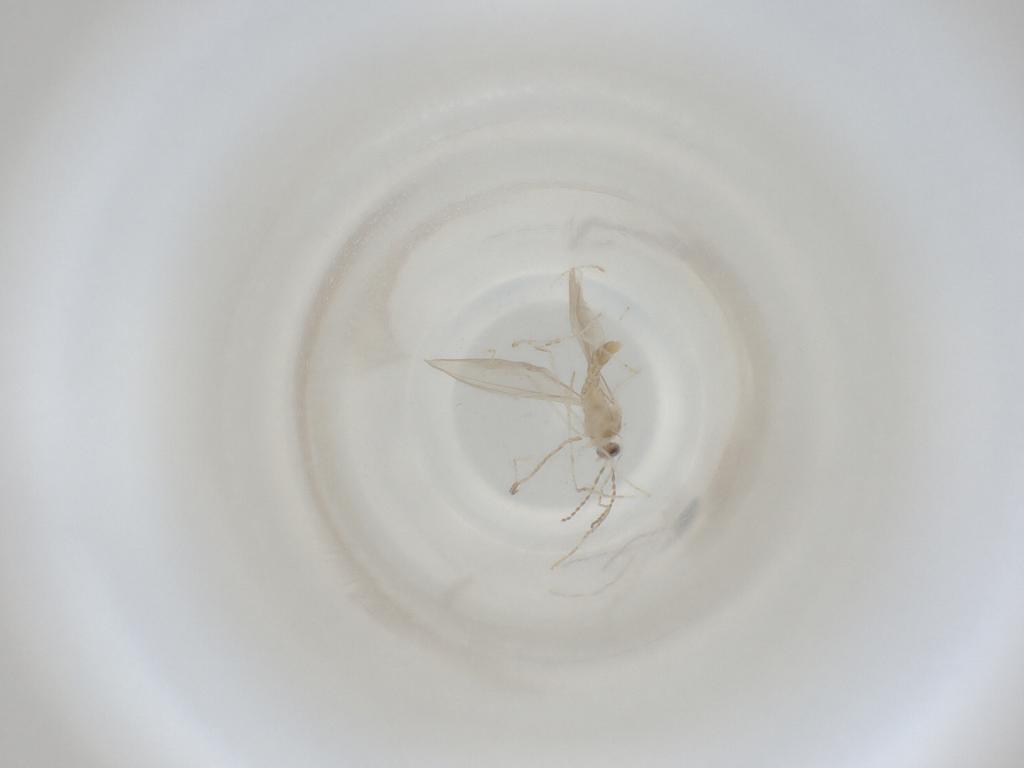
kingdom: Animalia
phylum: Arthropoda
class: Insecta
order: Diptera
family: Cecidomyiidae
